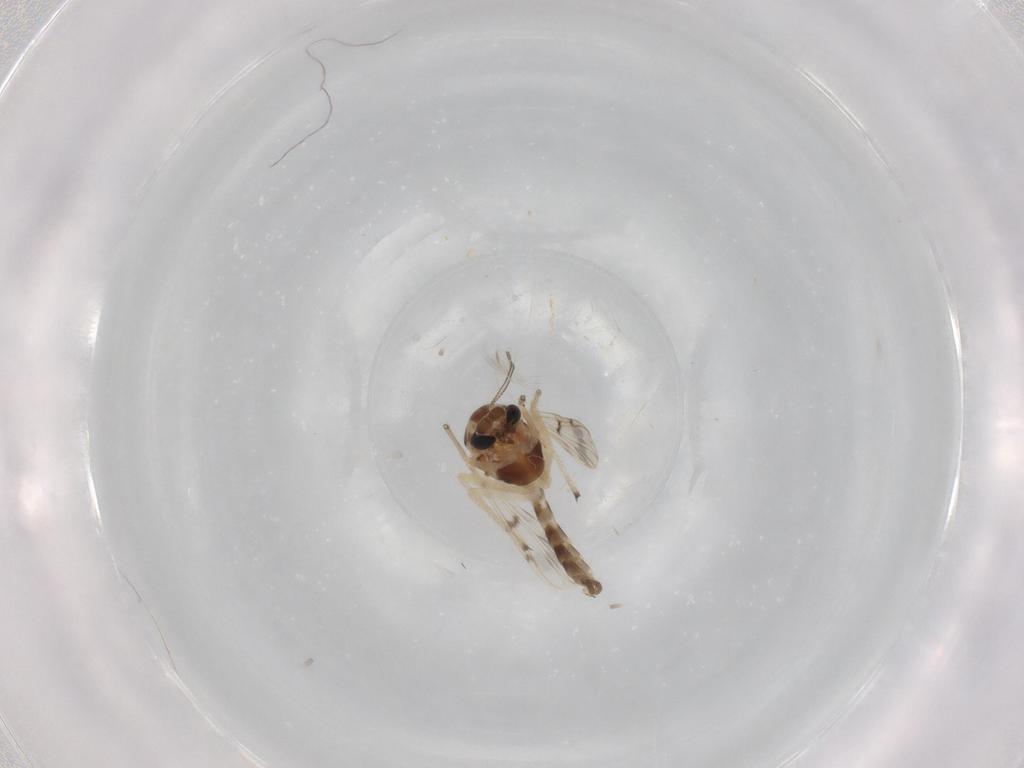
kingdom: Animalia
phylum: Arthropoda
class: Insecta
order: Diptera
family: Chironomidae
